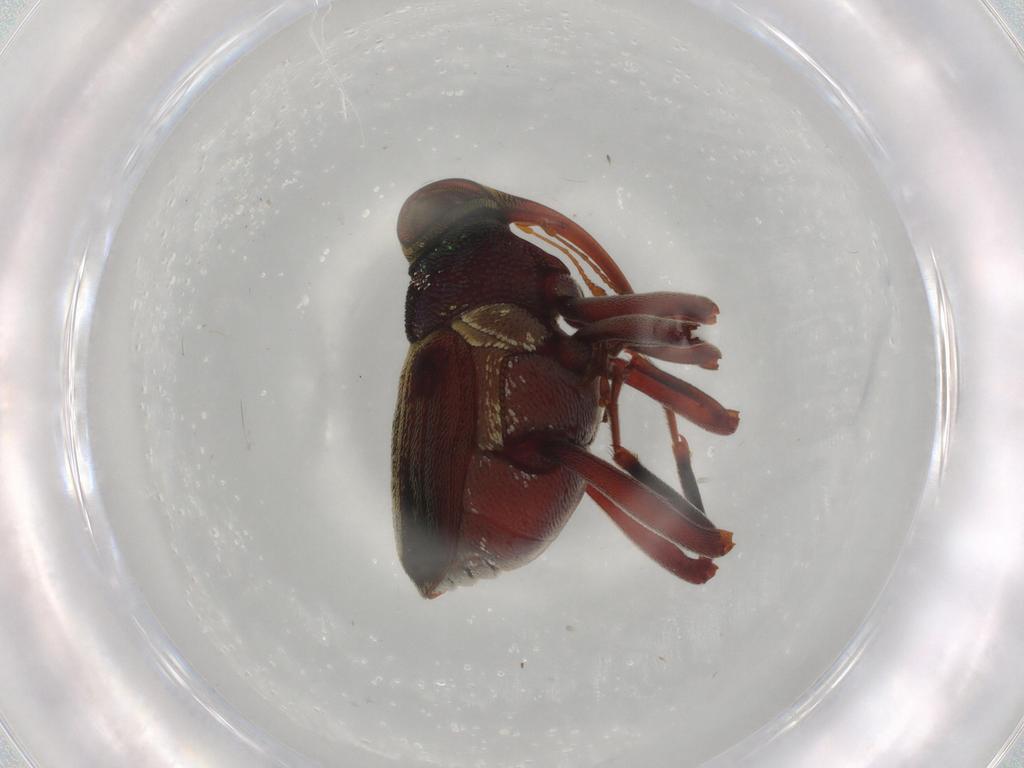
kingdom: Animalia
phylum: Arthropoda
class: Insecta
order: Coleoptera
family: Curculionidae
